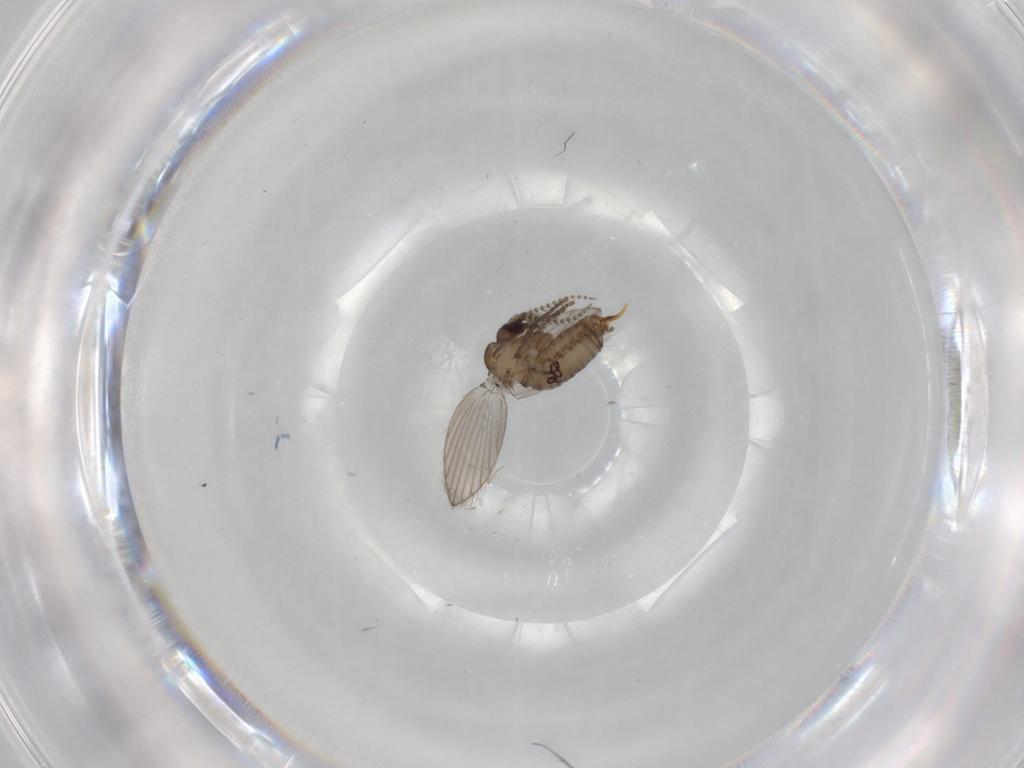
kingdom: Animalia
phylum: Arthropoda
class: Insecta
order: Diptera
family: Psychodidae
